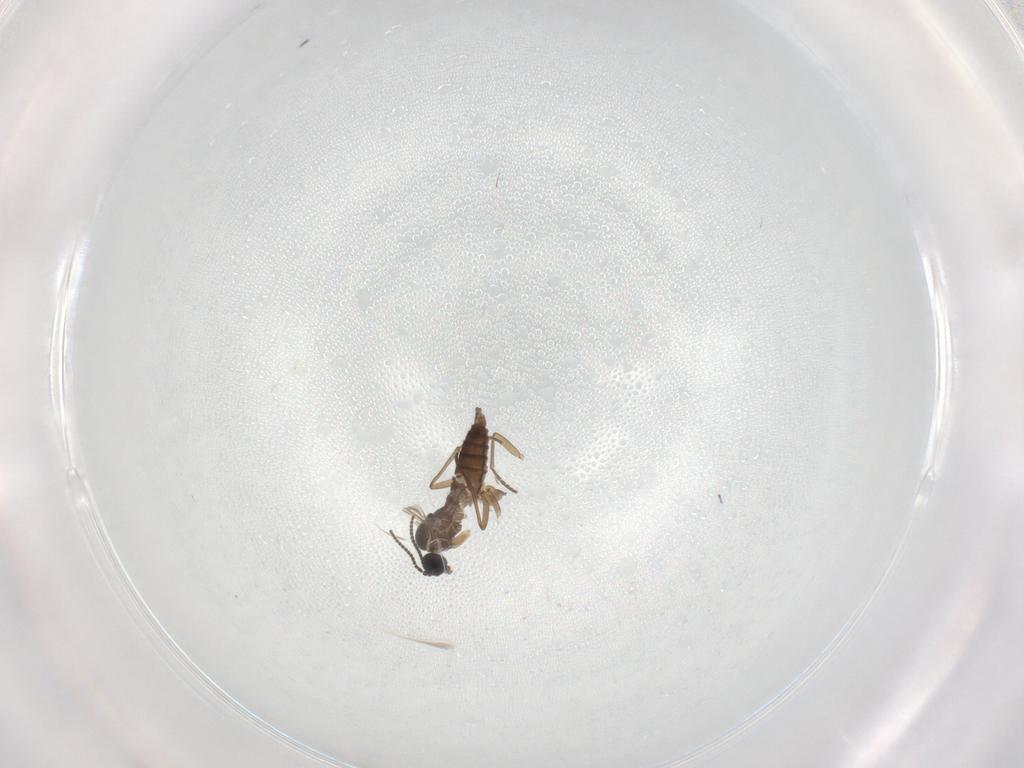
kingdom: Animalia
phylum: Arthropoda
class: Insecta
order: Diptera
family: Sciaridae
